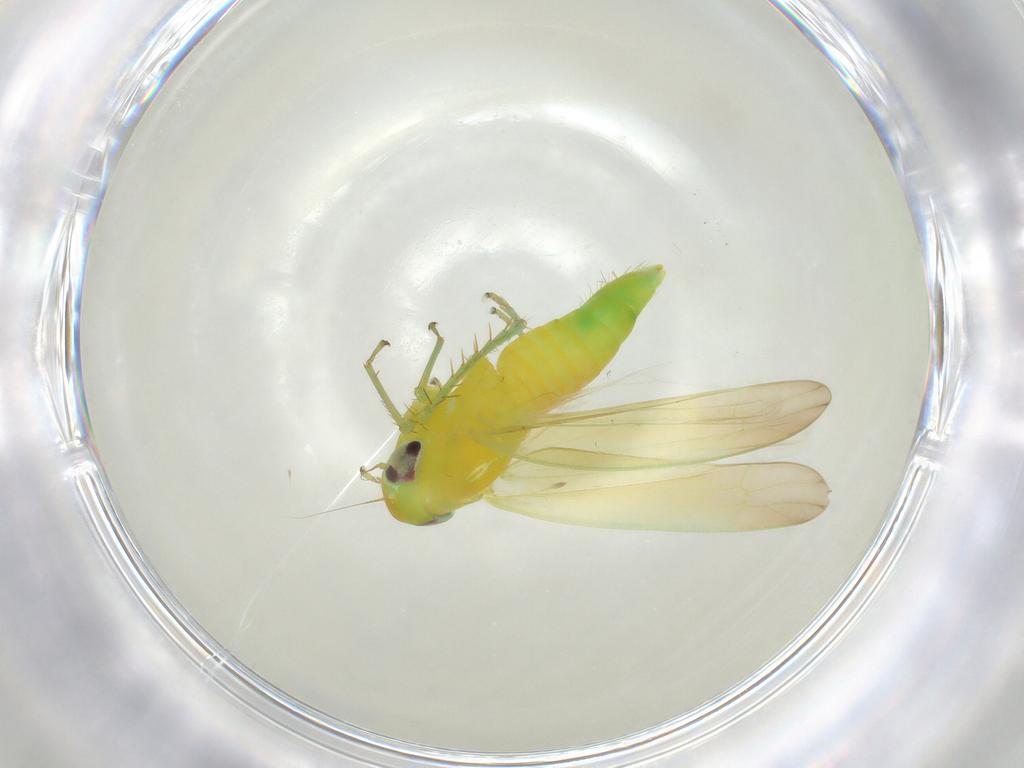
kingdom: Animalia
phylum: Arthropoda
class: Insecta
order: Hemiptera
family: Cicadellidae
